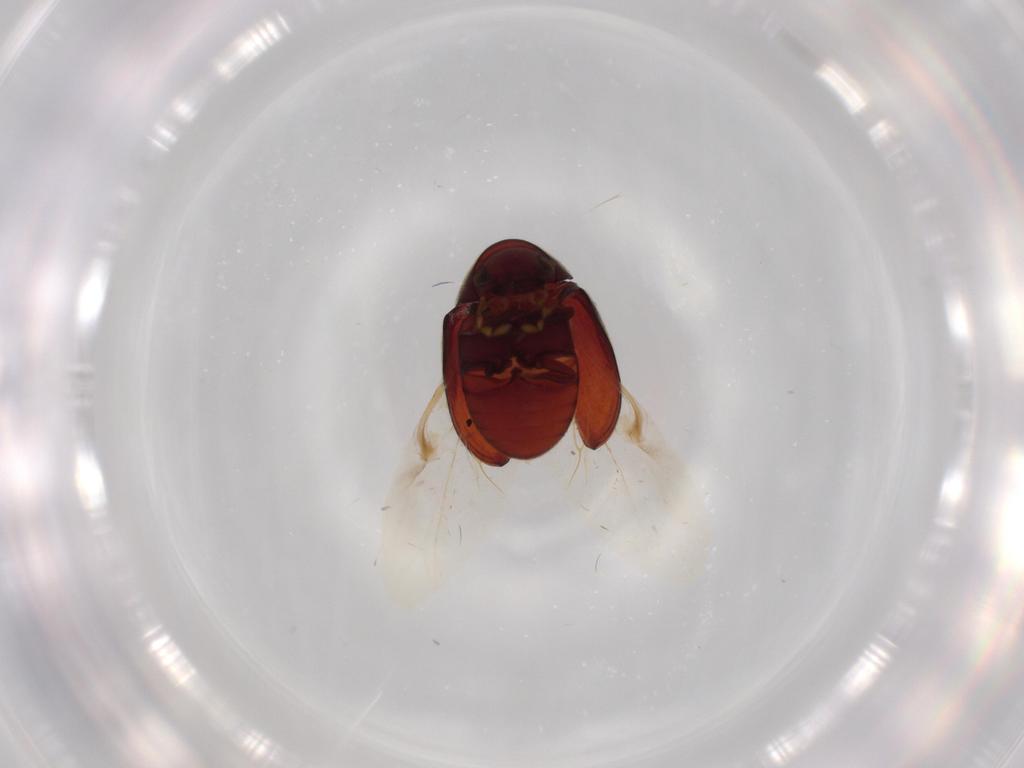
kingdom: Animalia
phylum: Arthropoda
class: Insecta
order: Coleoptera
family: Ptinidae
